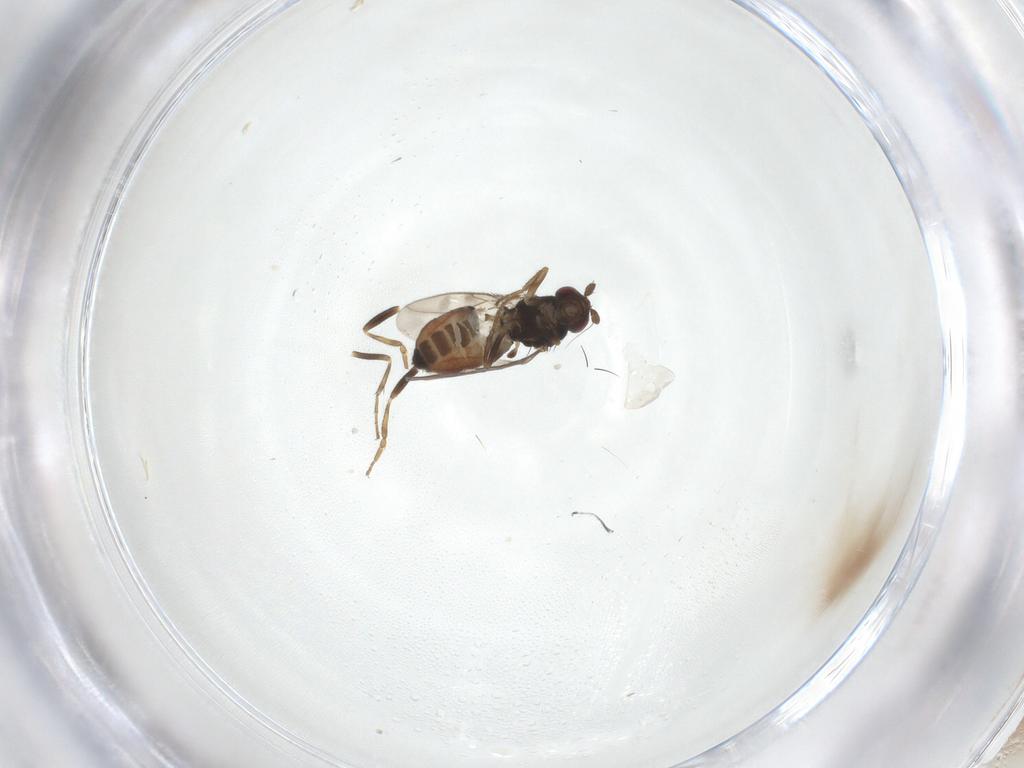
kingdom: Animalia
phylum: Arthropoda
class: Insecta
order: Diptera
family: Sphaeroceridae
